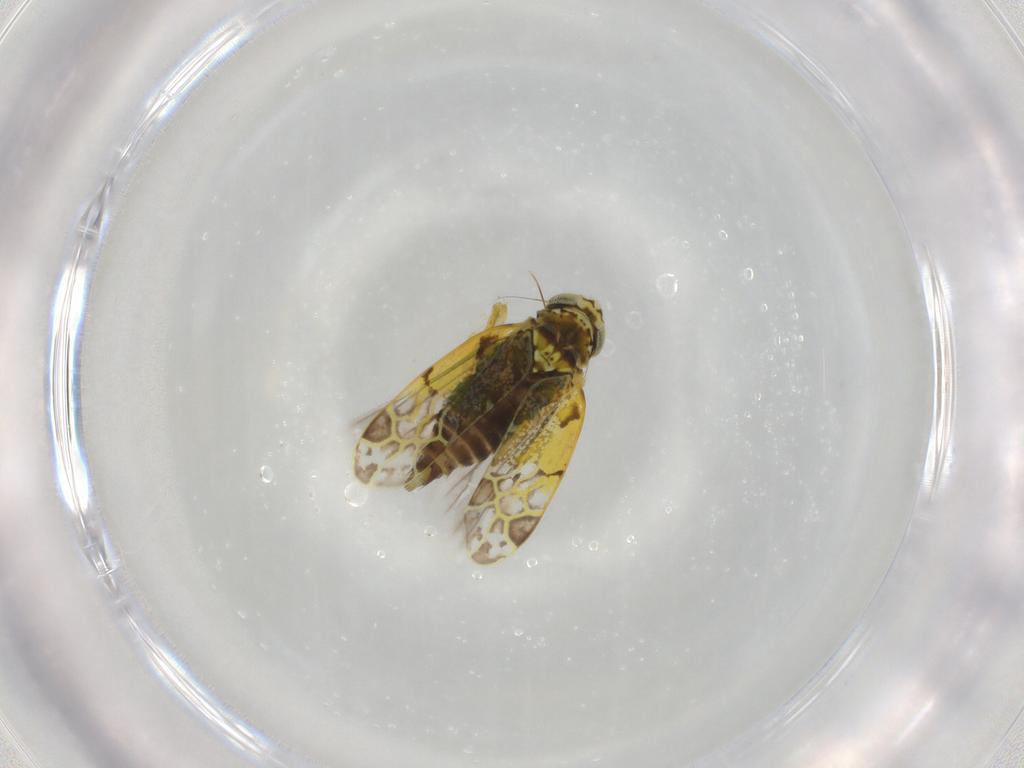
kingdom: Animalia
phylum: Arthropoda
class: Insecta
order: Hemiptera
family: Cicadellidae
